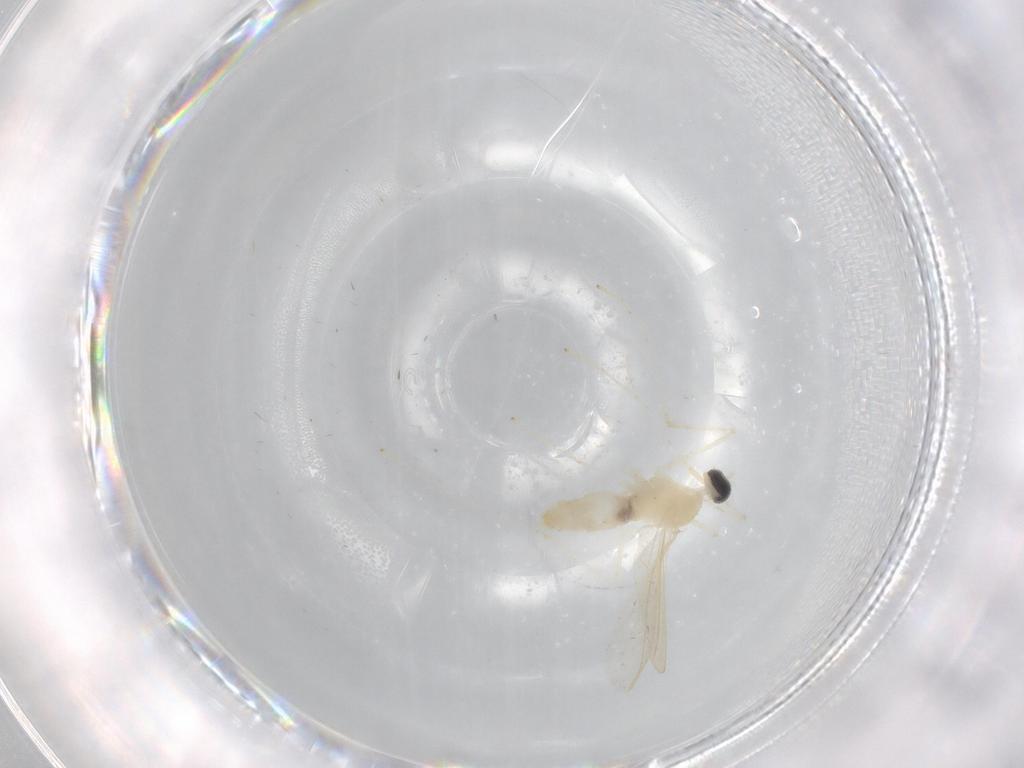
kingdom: Animalia
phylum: Arthropoda
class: Insecta
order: Diptera
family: Cecidomyiidae
